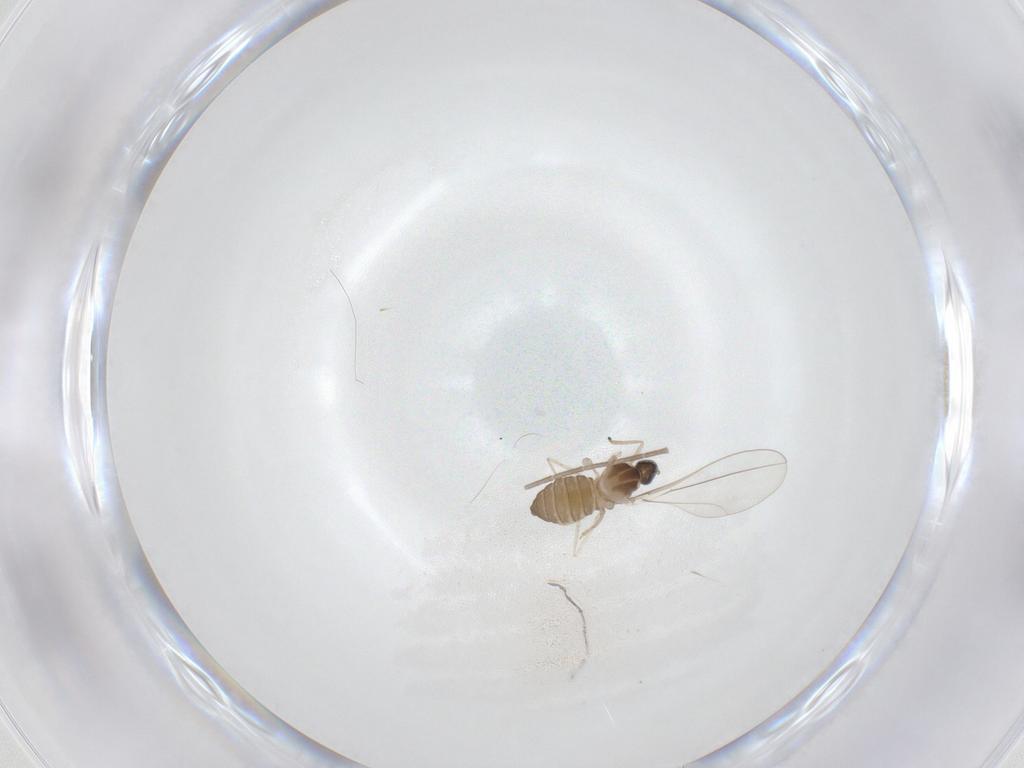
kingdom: Animalia
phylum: Arthropoda
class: Insecta
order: Diptera
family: Cecidomyiidae
